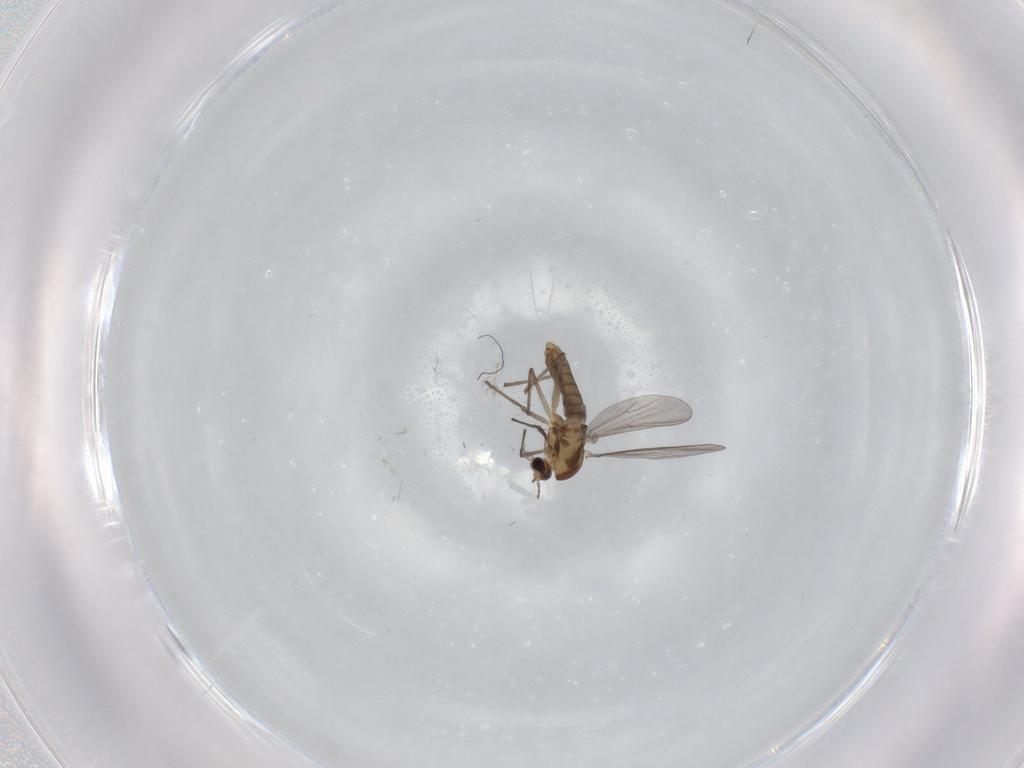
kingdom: Animalia
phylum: Arthropoda
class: Insecta
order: Diptera
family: Chironomidae
